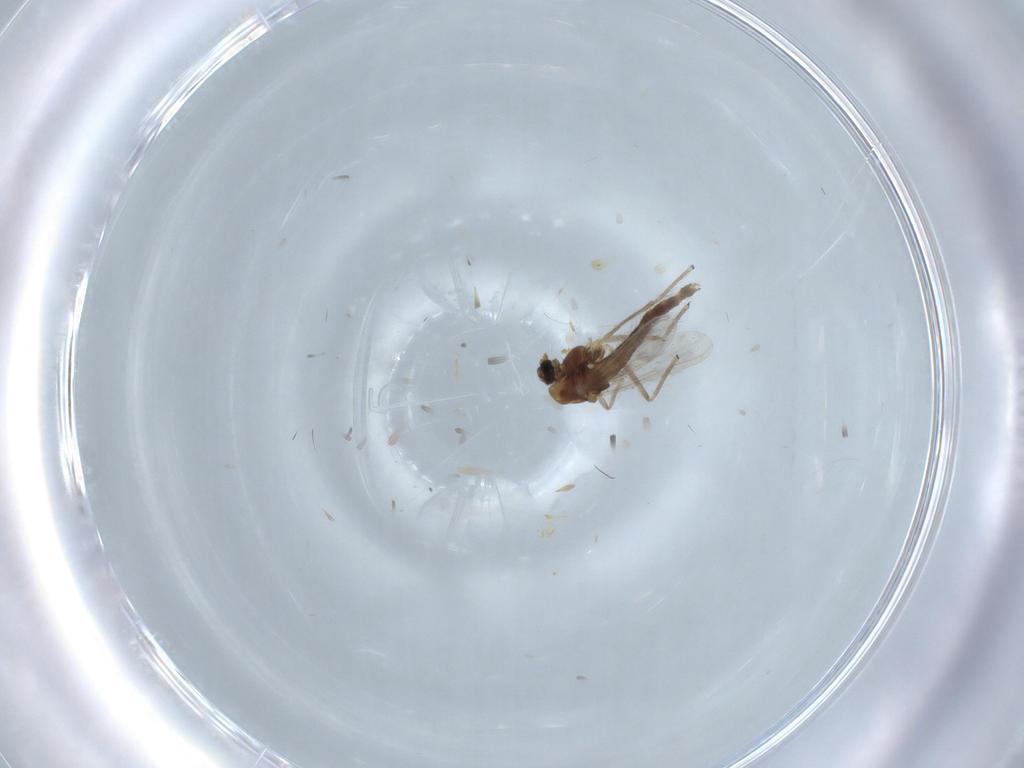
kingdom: Animalia
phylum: Arthropoda
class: Insecta
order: Diptera
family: Chironomidae
